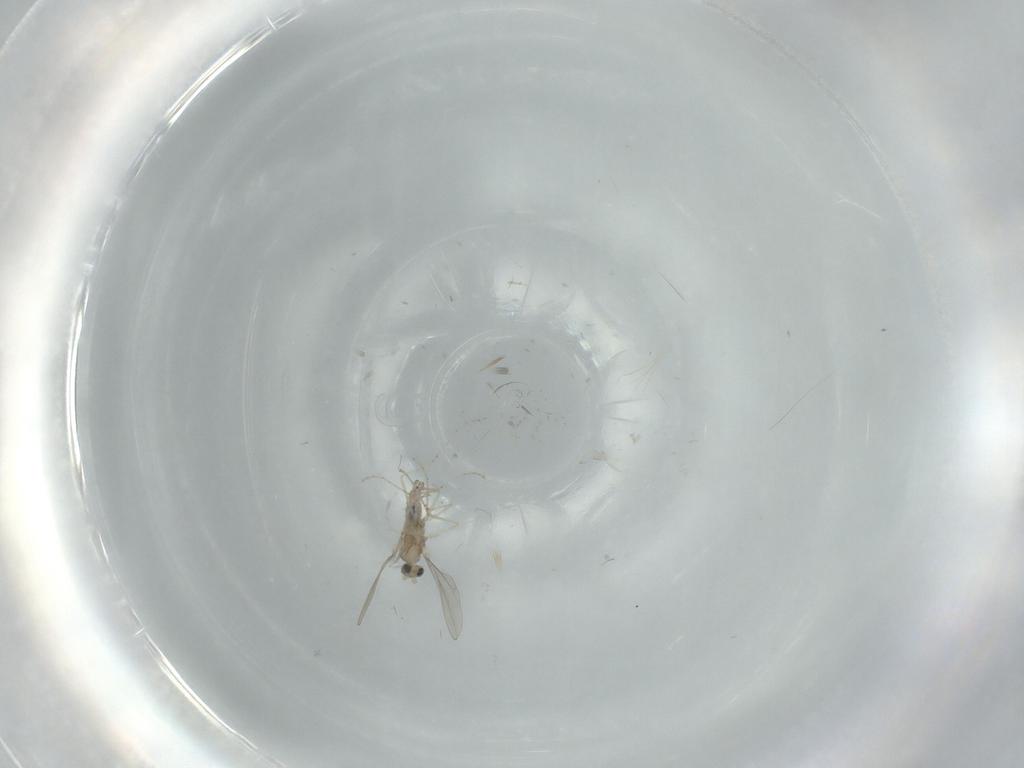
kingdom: Animalia
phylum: Arthropoda
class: Insecta
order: Diptera
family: Cecidomyiidae
